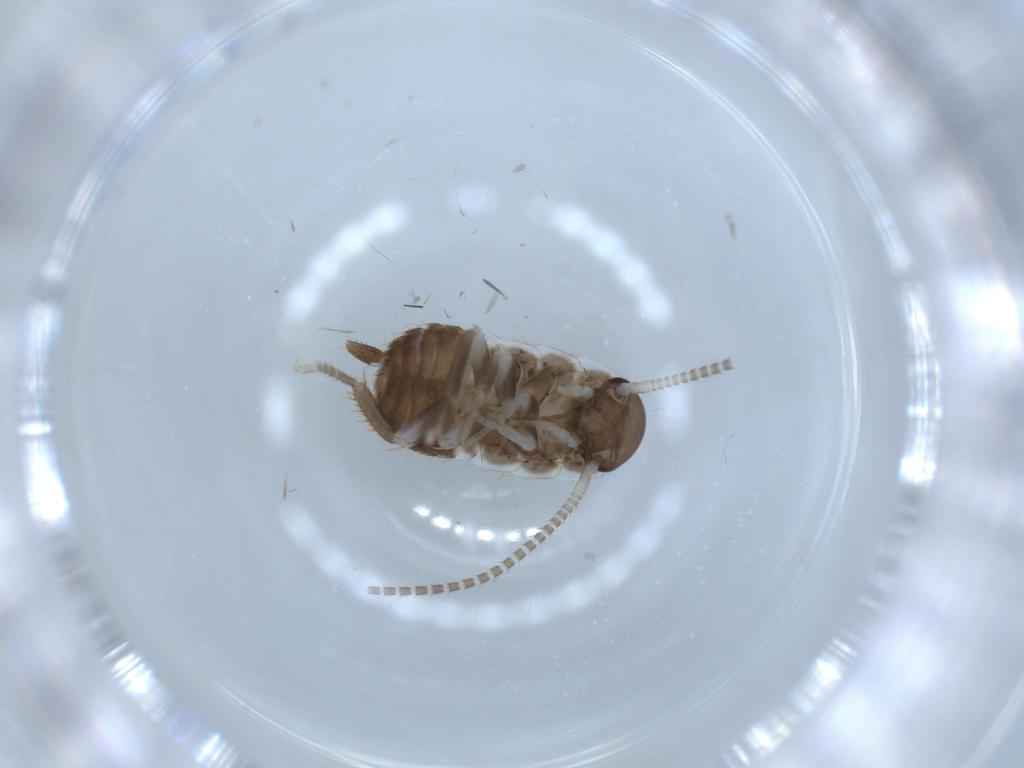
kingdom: Animalia
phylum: Arthropoda
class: Insecta
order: Blattodea
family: Ectobiidae
